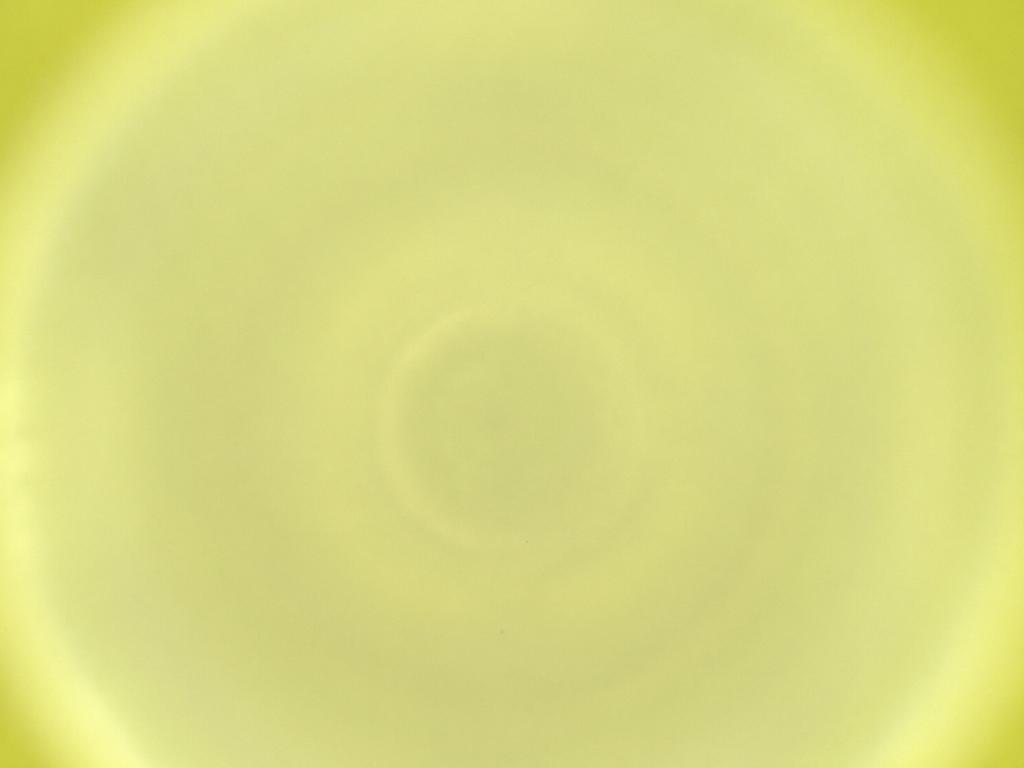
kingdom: Animalia
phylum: Arthropoda
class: Insecta
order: Diptera
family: Cecidomyiidae
